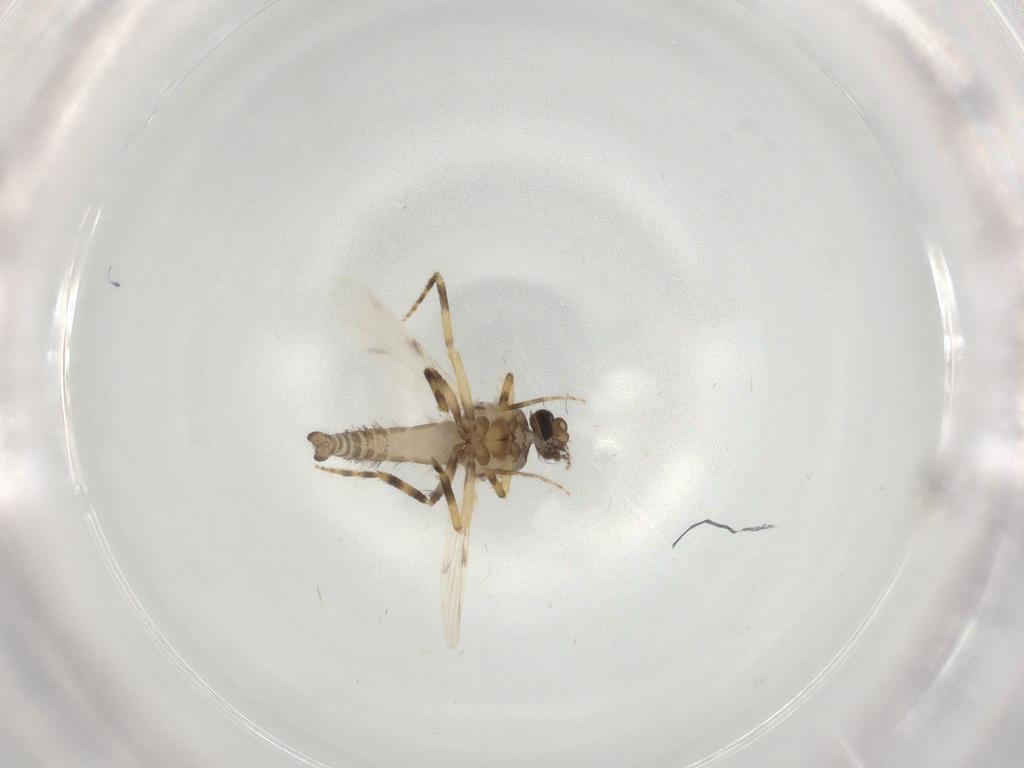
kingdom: Animalia
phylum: Arthropoda
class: Insecta
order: Diptera
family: Ceratopogonidae
